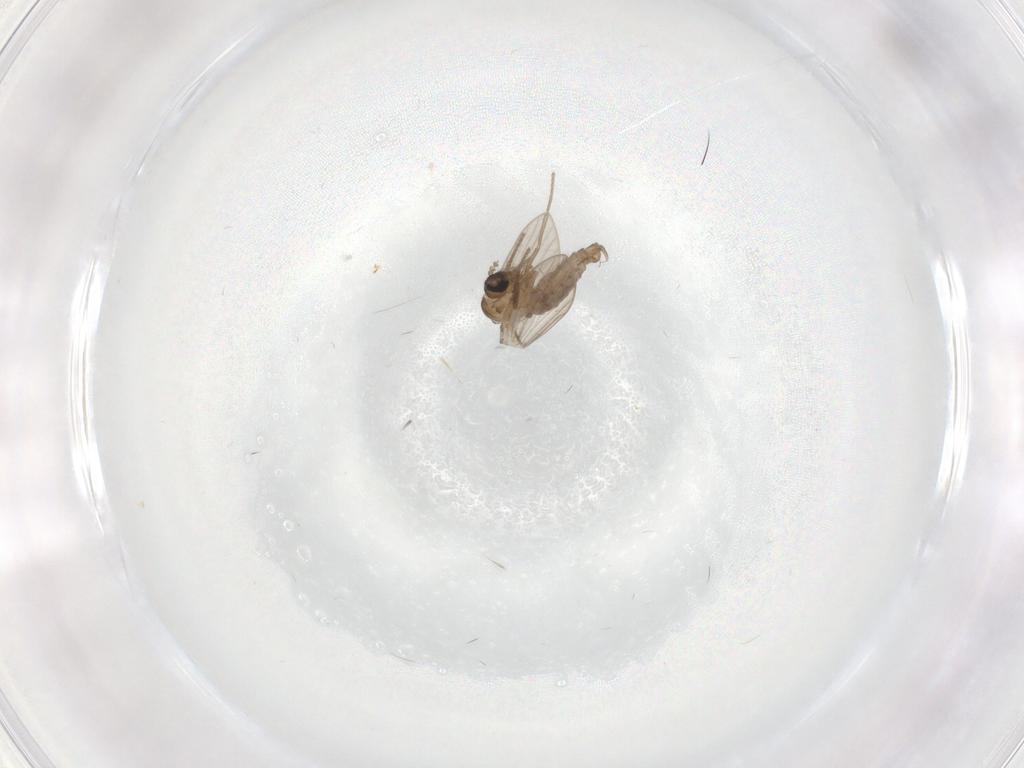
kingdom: Animalia
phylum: Arthropoda
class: Insecta
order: Diptera
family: Psychodidae
